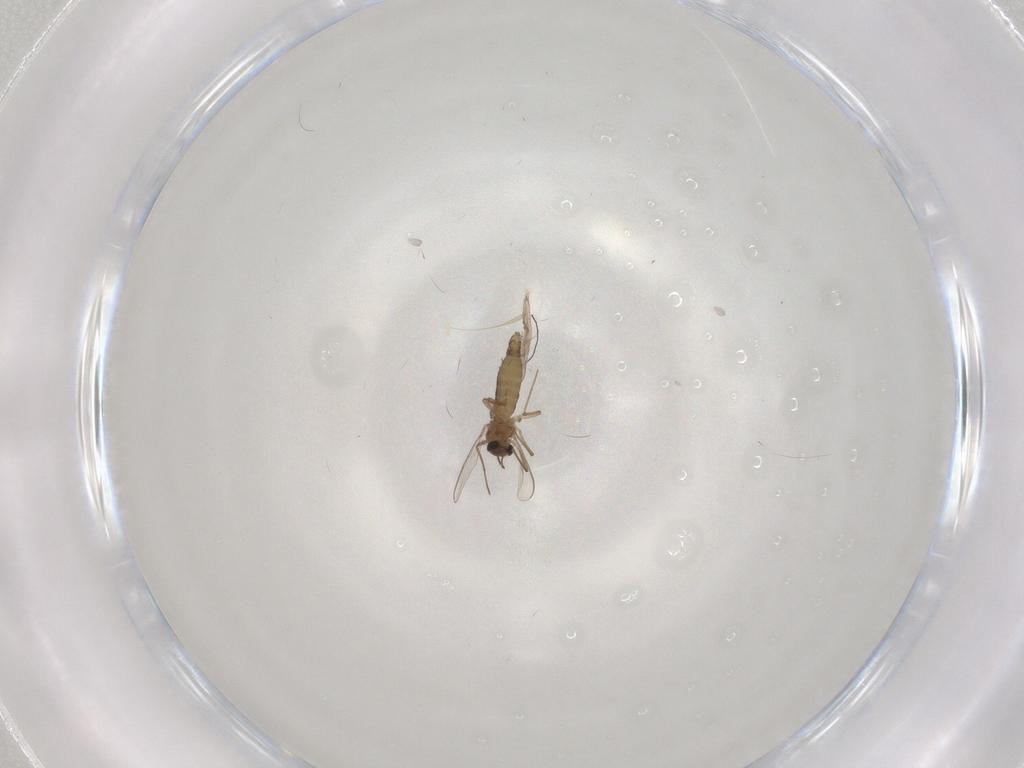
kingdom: Animalia
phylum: Arthropoda
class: Insecta
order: Diptera
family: Chironomidae
